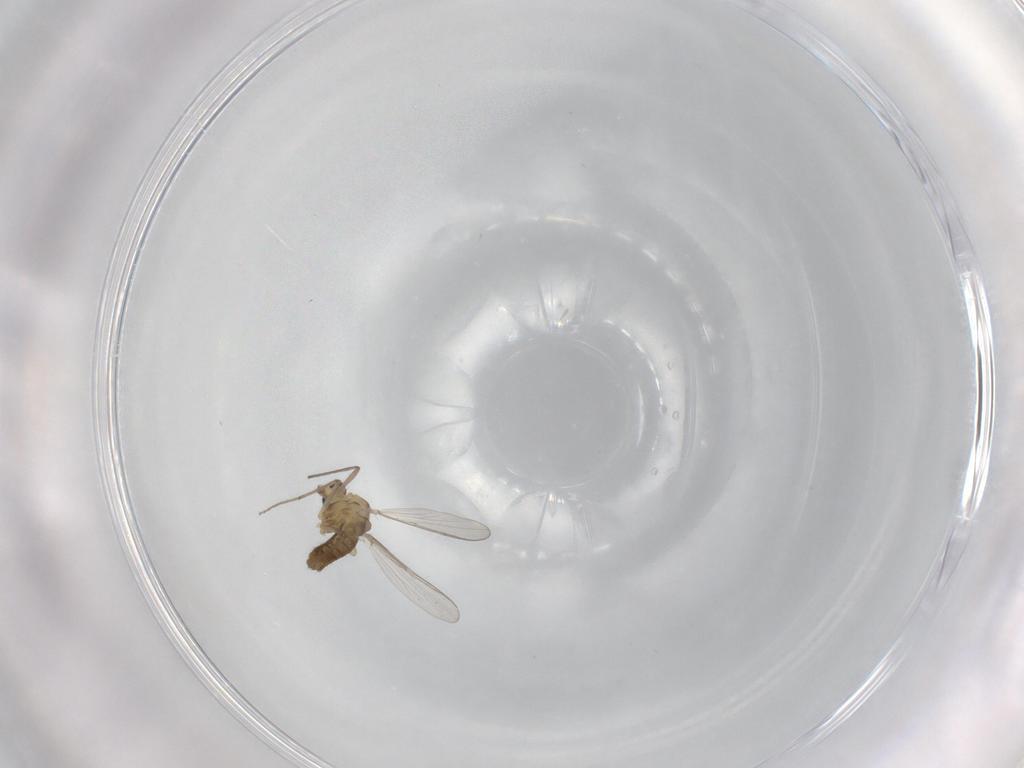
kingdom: Animalia
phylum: Arthropoda
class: Insecta
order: Diptera
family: Chironomidae
